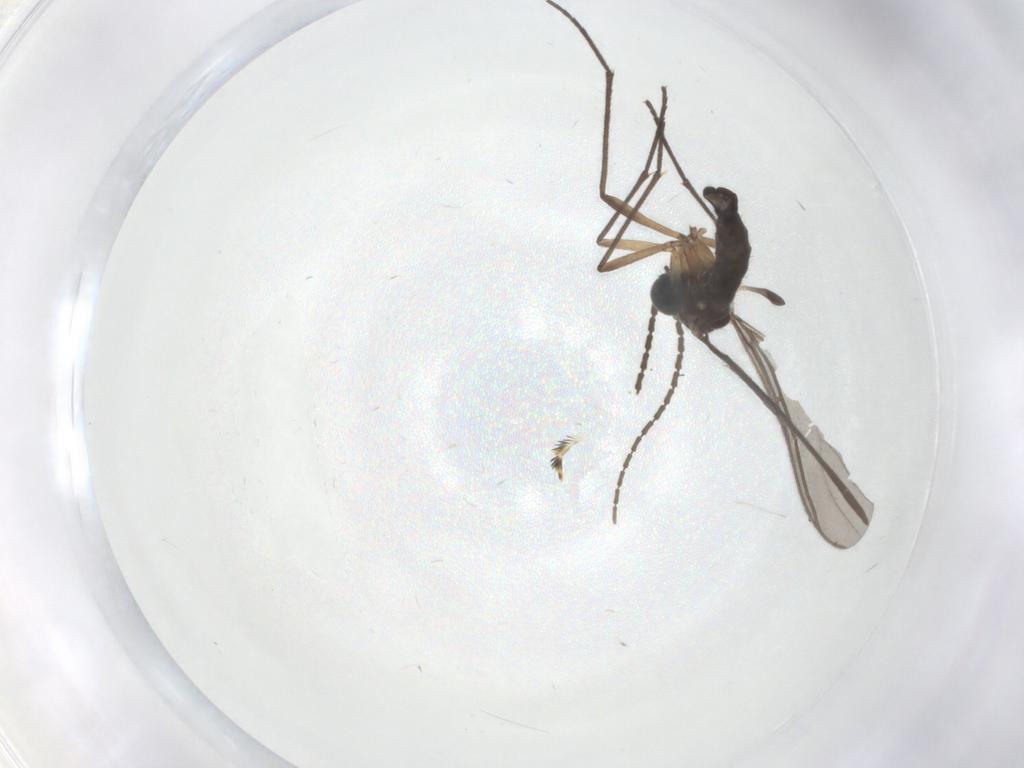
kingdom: Animalia
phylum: Arthropoda
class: Insecta
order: Diptera
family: Sciaridae
